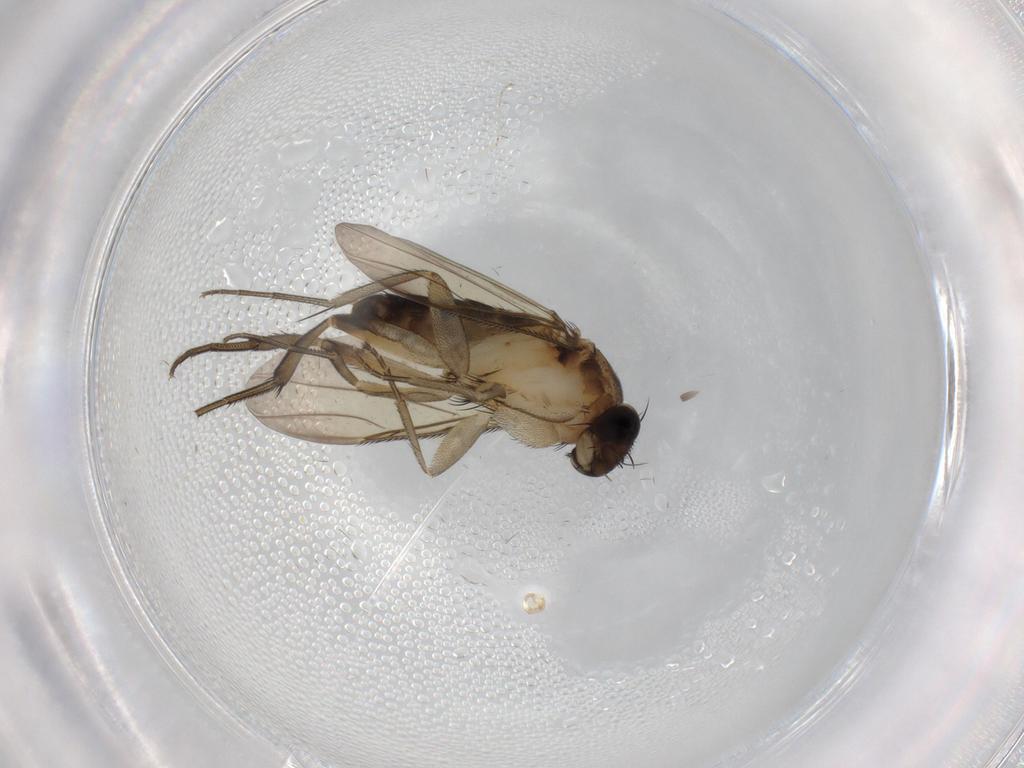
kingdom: Animalia
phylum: Arthropoda
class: Insecta
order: Diptera
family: Phoridae
